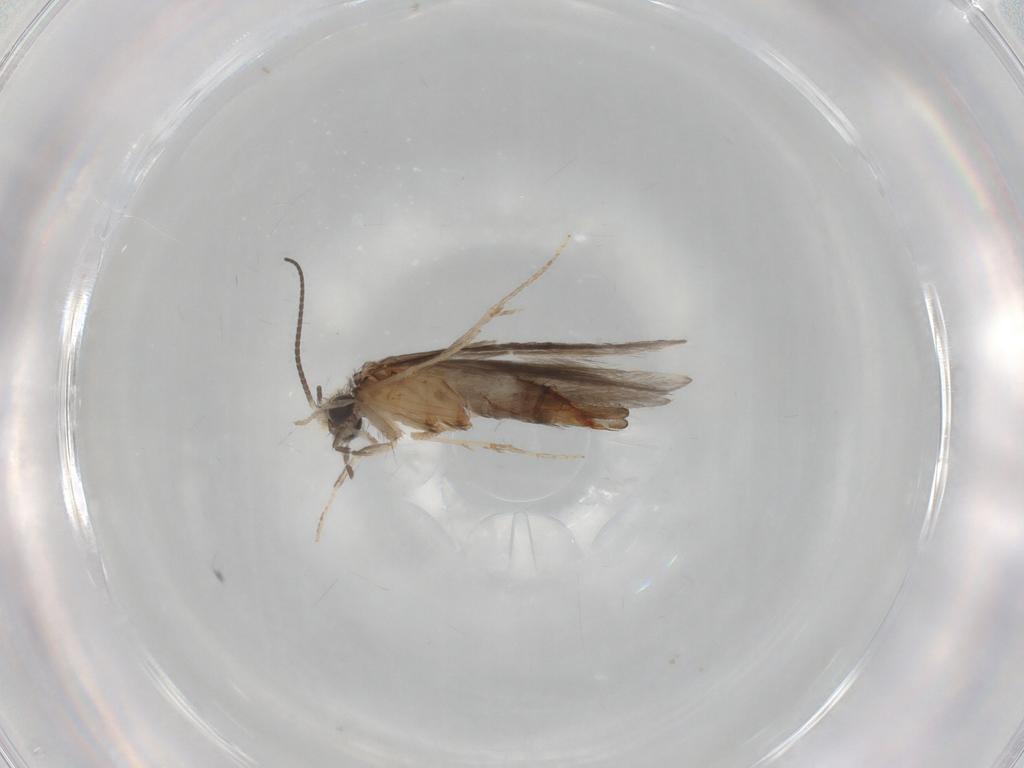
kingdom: Animalia
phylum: Arthropoda
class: Insecta
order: Trichoptera
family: Hydroptilidae
